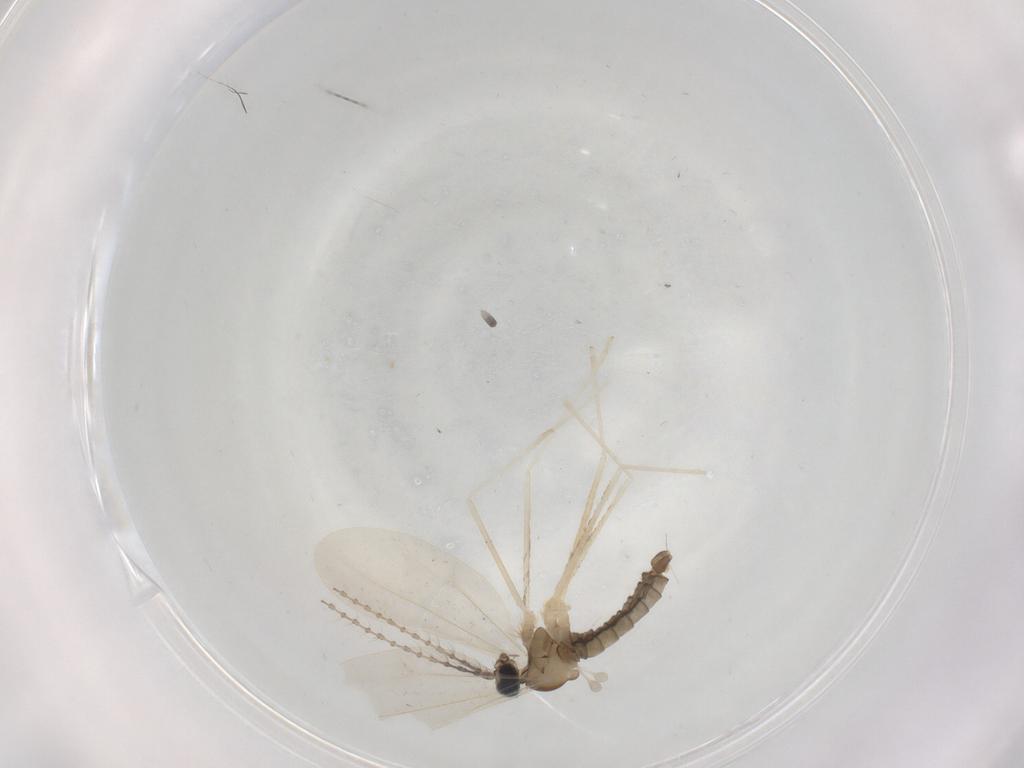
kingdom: Animalia
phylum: Arthropoda
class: Insecta
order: Diptera
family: Cecidomyiidae
